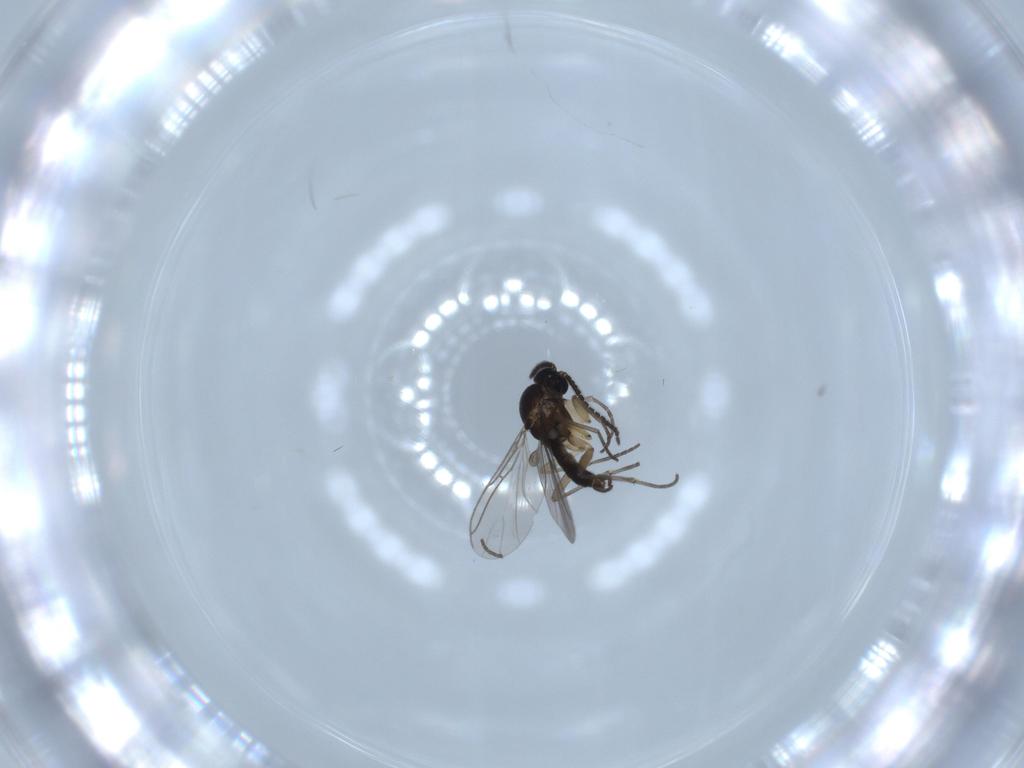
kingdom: Animalia
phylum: Arthropoda
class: Insecta
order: Diptera
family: Sciaridae
